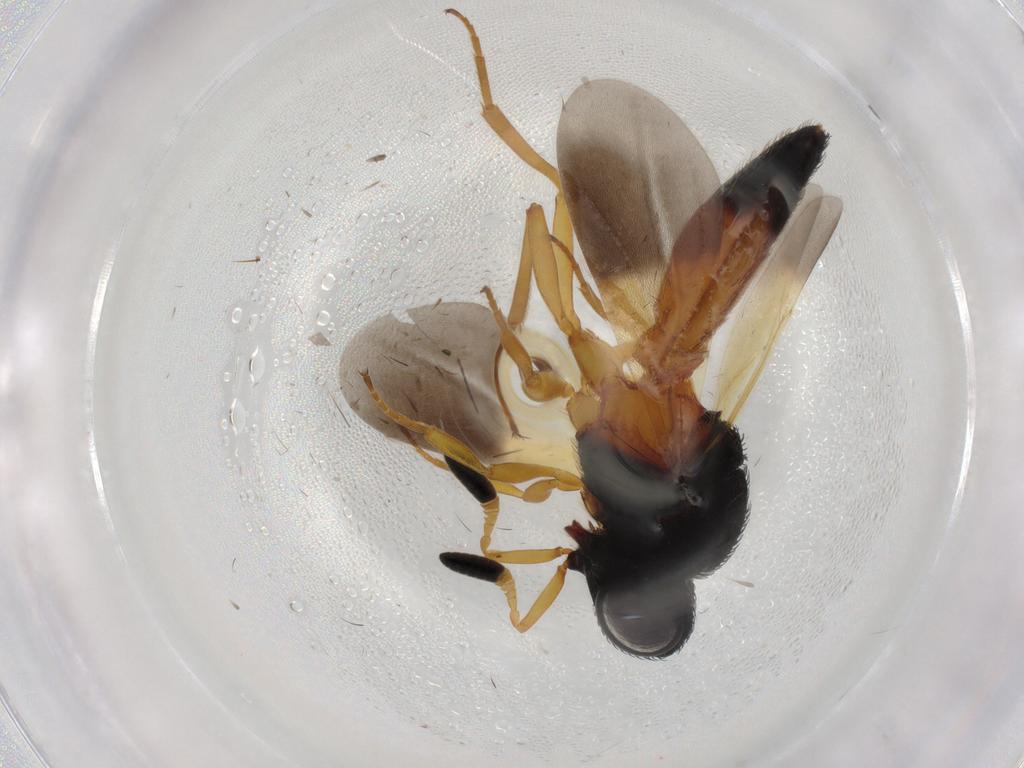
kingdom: Animalia
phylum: Arthropoda
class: Insecta
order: Hymenoptera
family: Scelionidae
